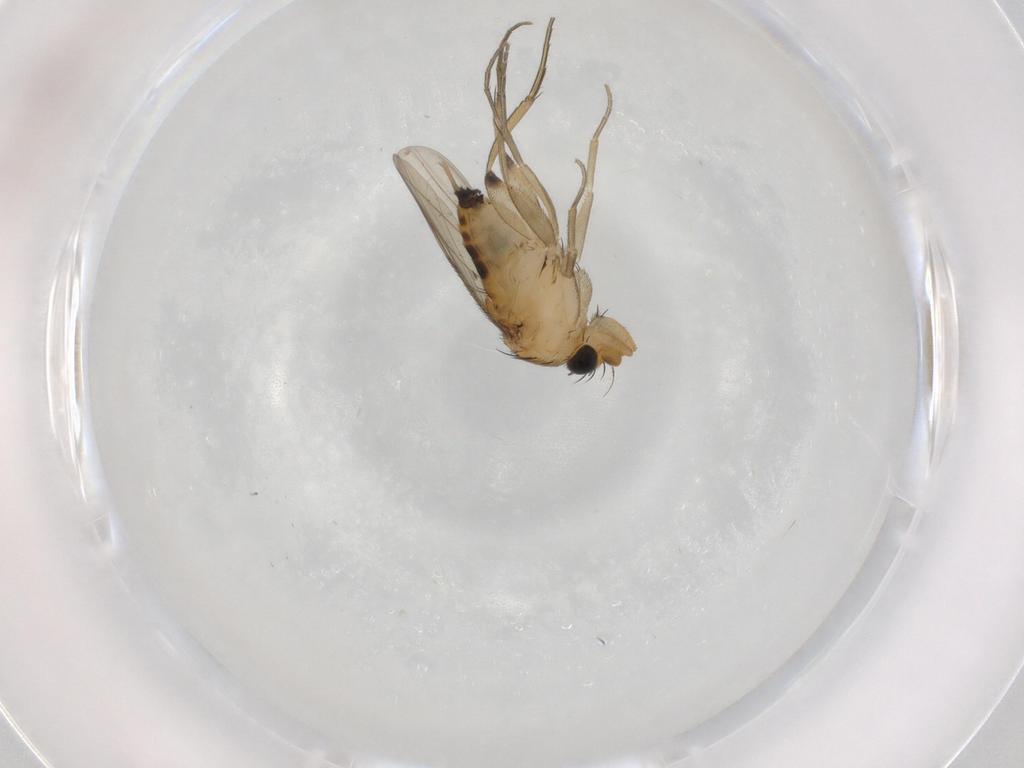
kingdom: Animalia
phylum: Arthropoda
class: Insecta
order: Diptera
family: Phoridae
